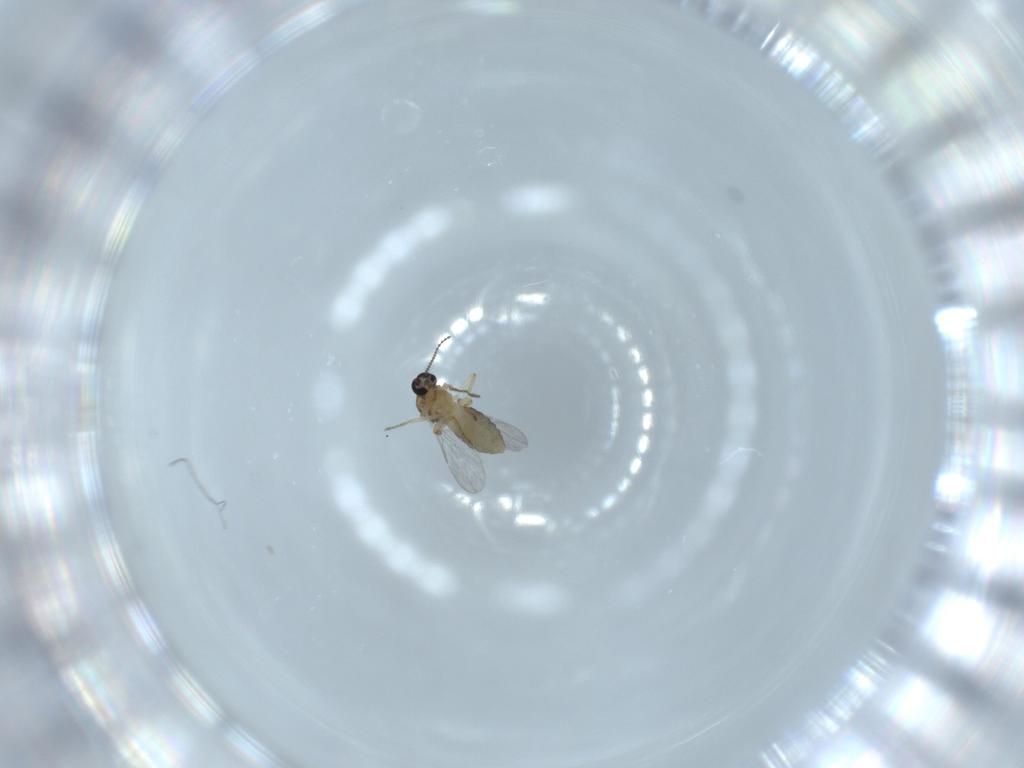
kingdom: Animalia
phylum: Arthropoda
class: Insecta
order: Diptera
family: Ceratopogonidae
